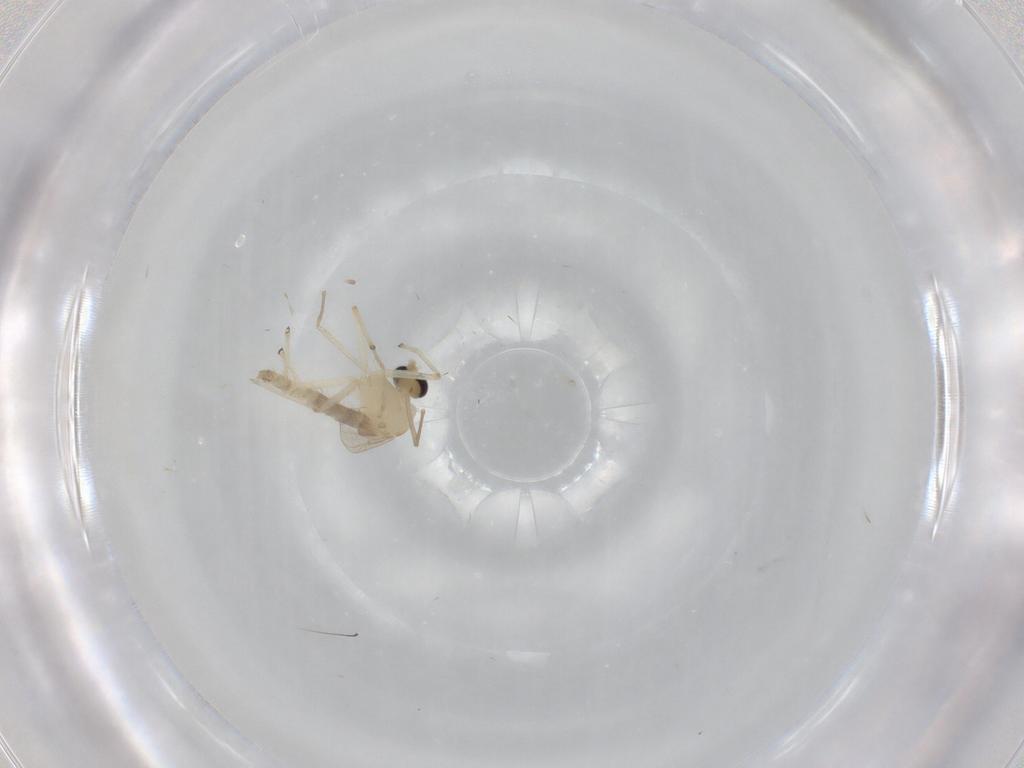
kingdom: Animalia
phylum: Arthropoda
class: Insecta
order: Diptera
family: Chironomidae
